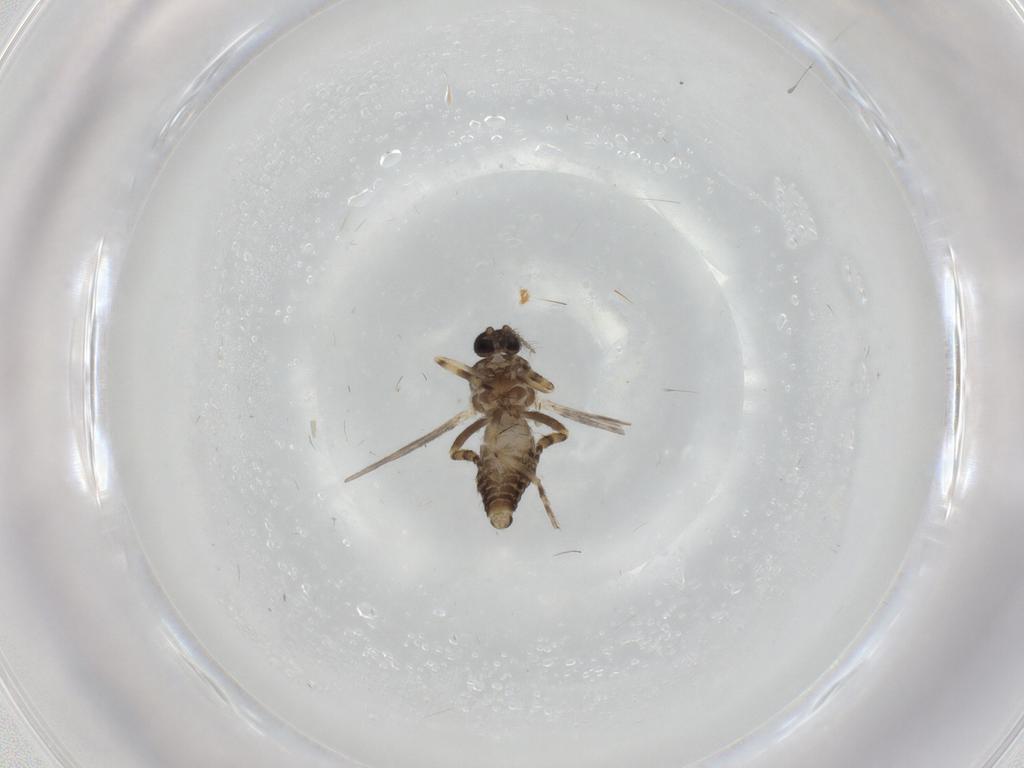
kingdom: Animalia
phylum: Arthropoda
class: Insecta
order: Diptera
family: Ceratopogonidae
